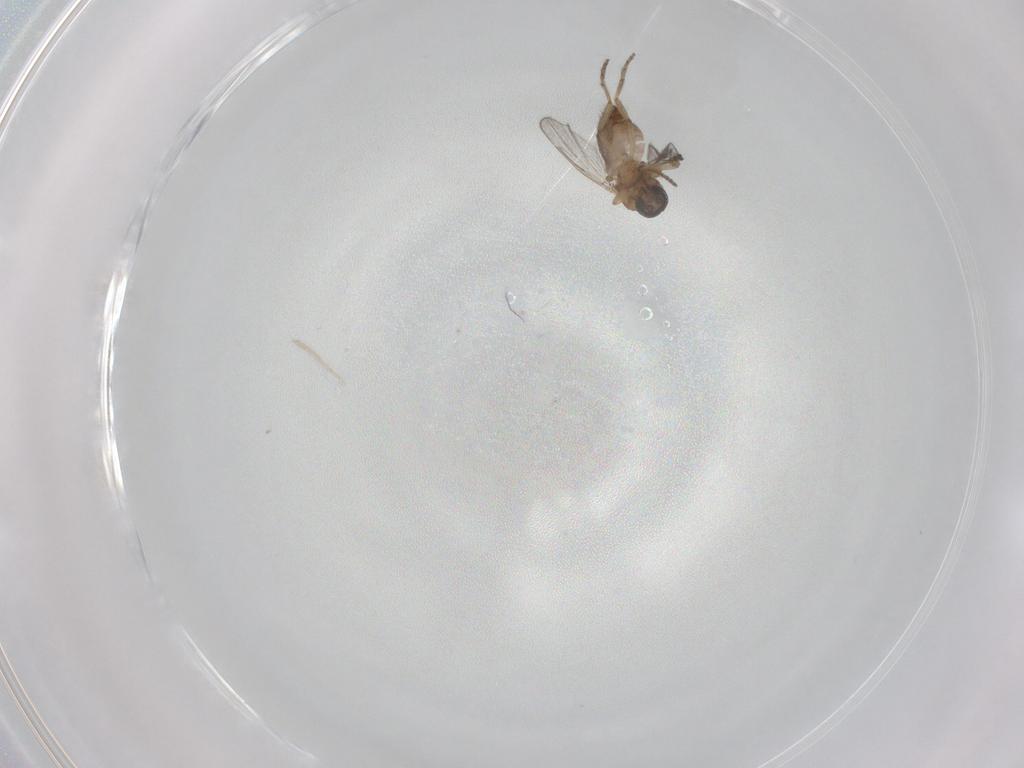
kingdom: Animalia
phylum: Arthropoda
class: Insecta
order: Diptera
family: Ceratopogonidae
